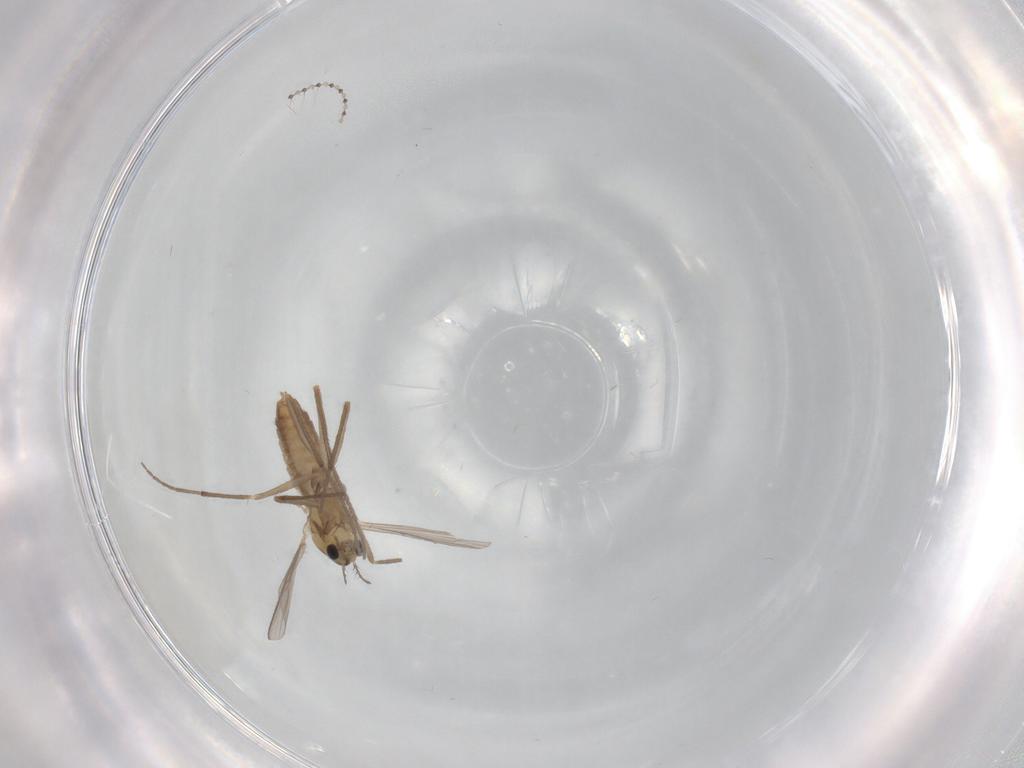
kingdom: Animalia
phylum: Arthropoda
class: Insecta
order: Diptera
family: Chironomidae
